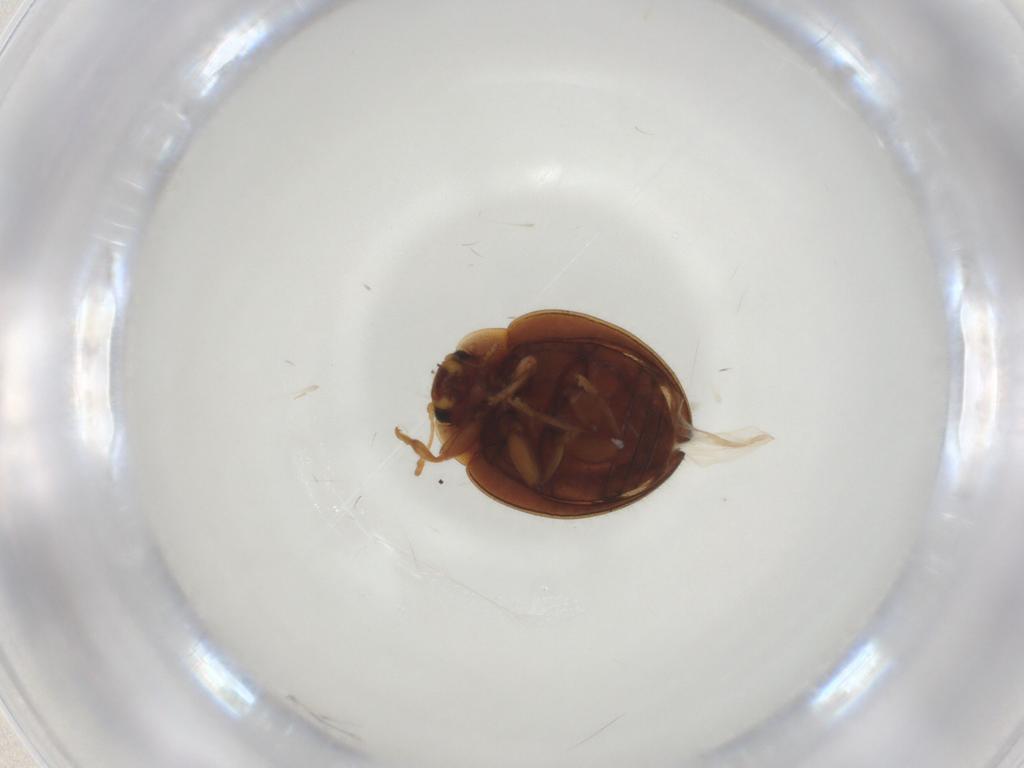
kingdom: Animalia
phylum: Arthropoda
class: Insecta
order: Coleoptera
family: Coccinellidae
